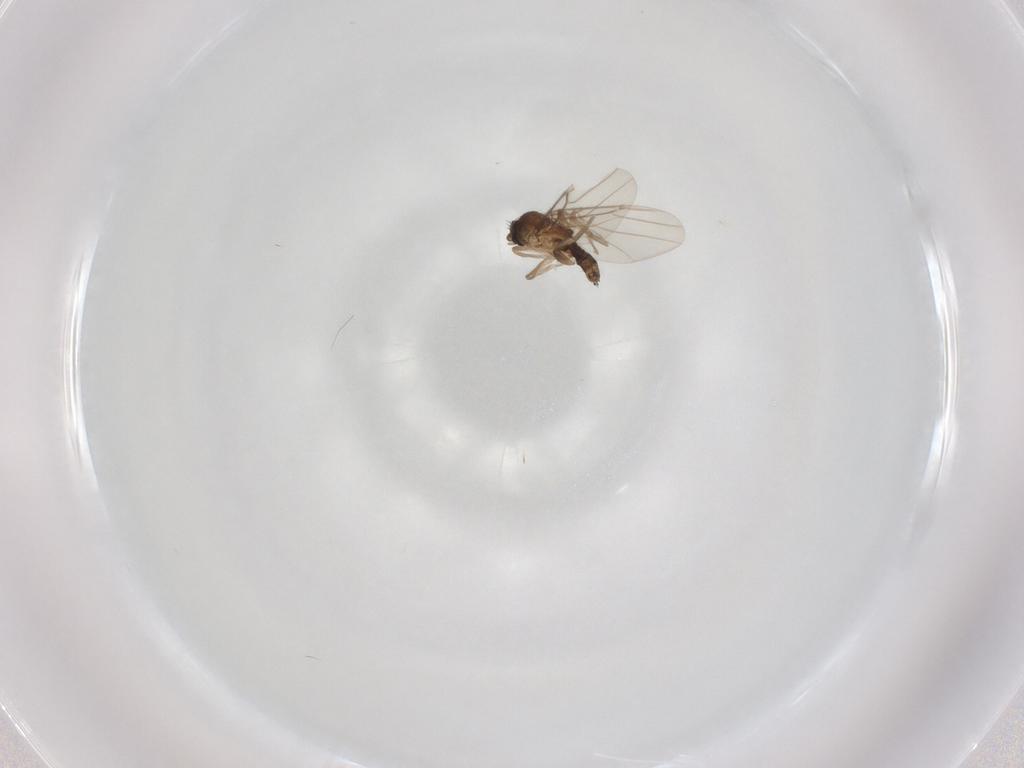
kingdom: Animalia
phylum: Arthropoda
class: Insecta
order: Diptera
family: Phoridae
